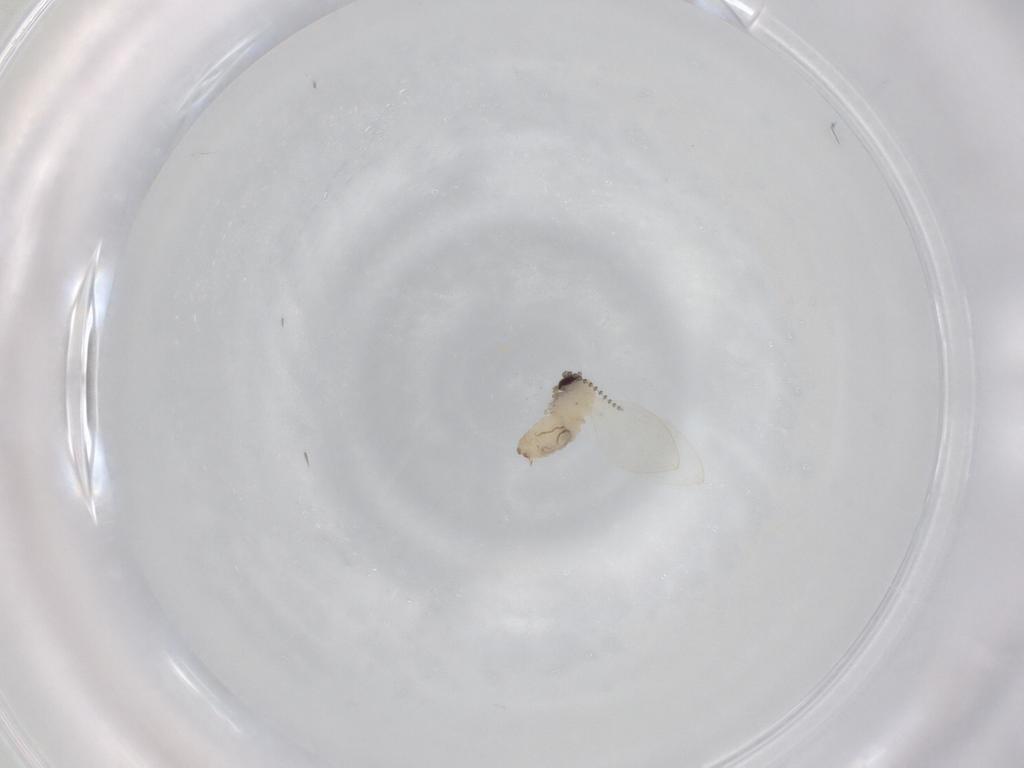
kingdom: Animalia
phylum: Arthropoda
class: Insecta
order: Diptera
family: Psychodidae
